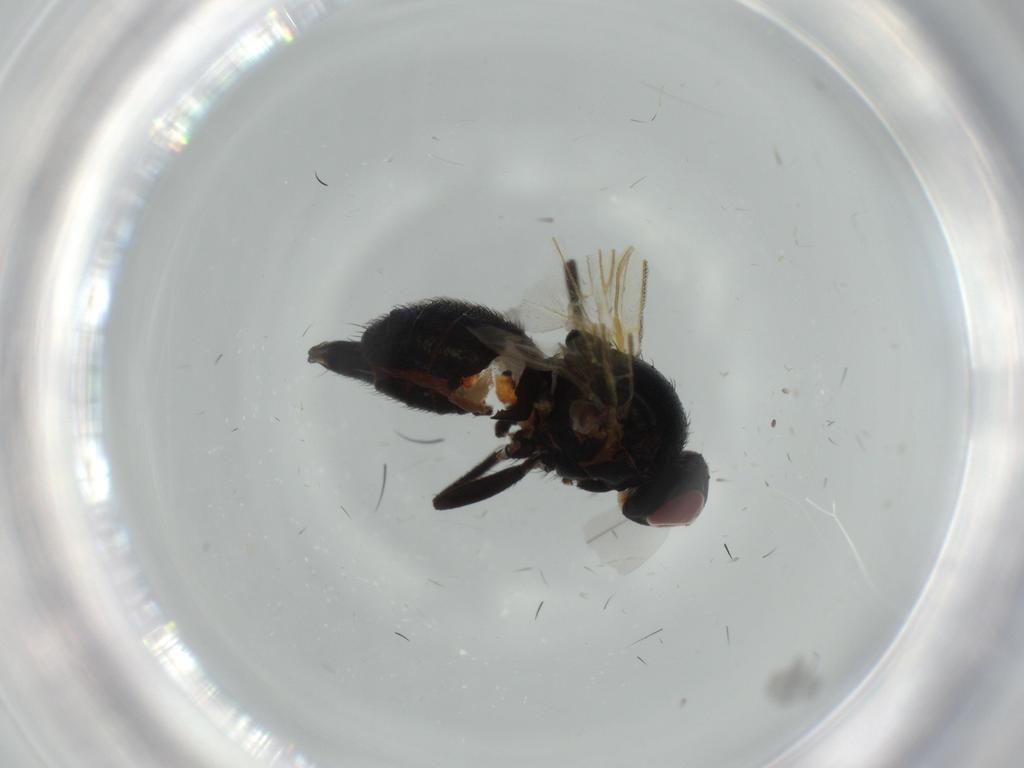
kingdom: Animalia
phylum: Arthropoda
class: Insecta
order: Diptera
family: Agromyzidae
